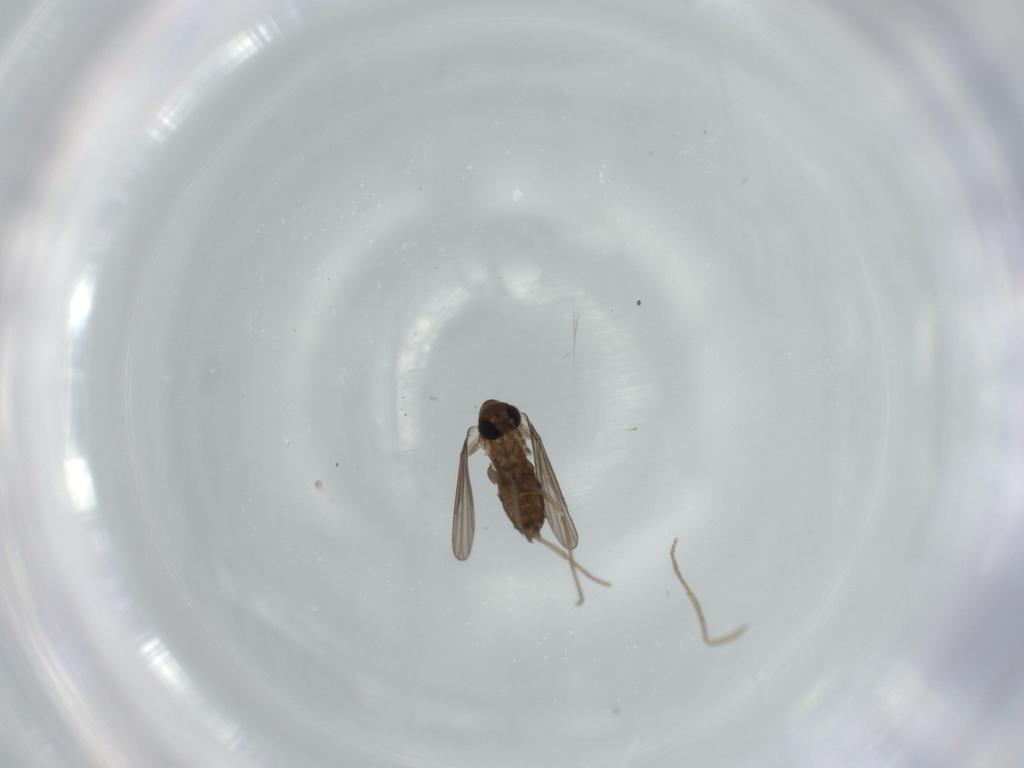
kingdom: Animalia
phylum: Arthropoda
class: Insecta
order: Diptera
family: Psychodidae
